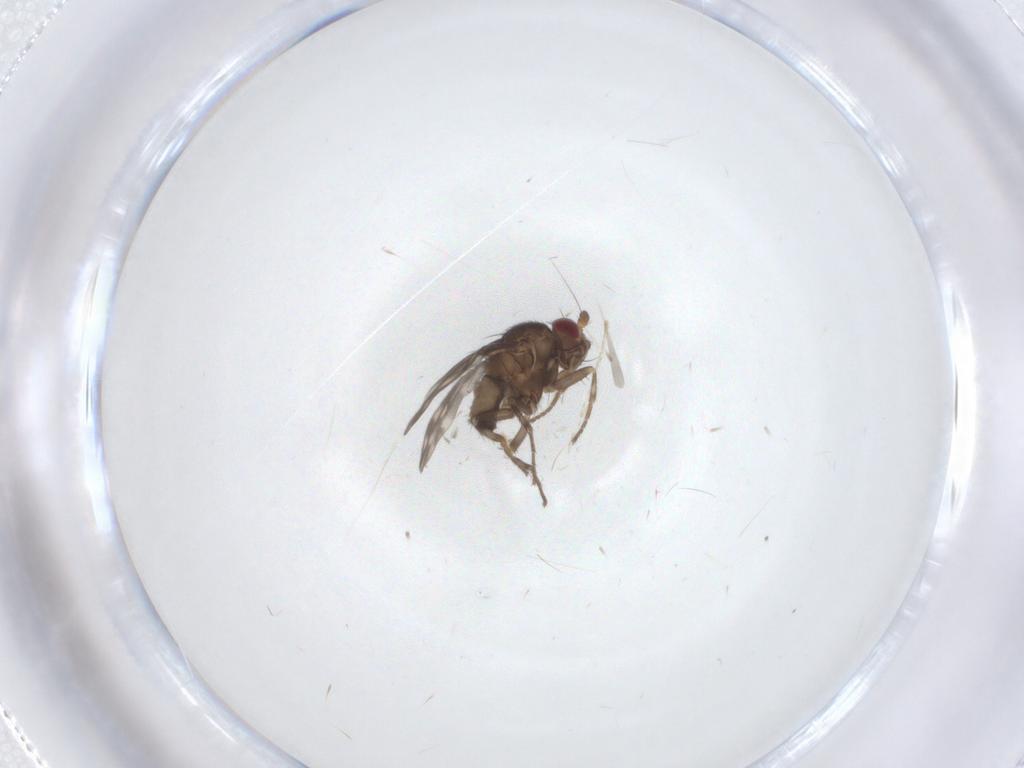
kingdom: Animalia
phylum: Arthropoda
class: Insecta
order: Diptera
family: Sphaeroceridae
